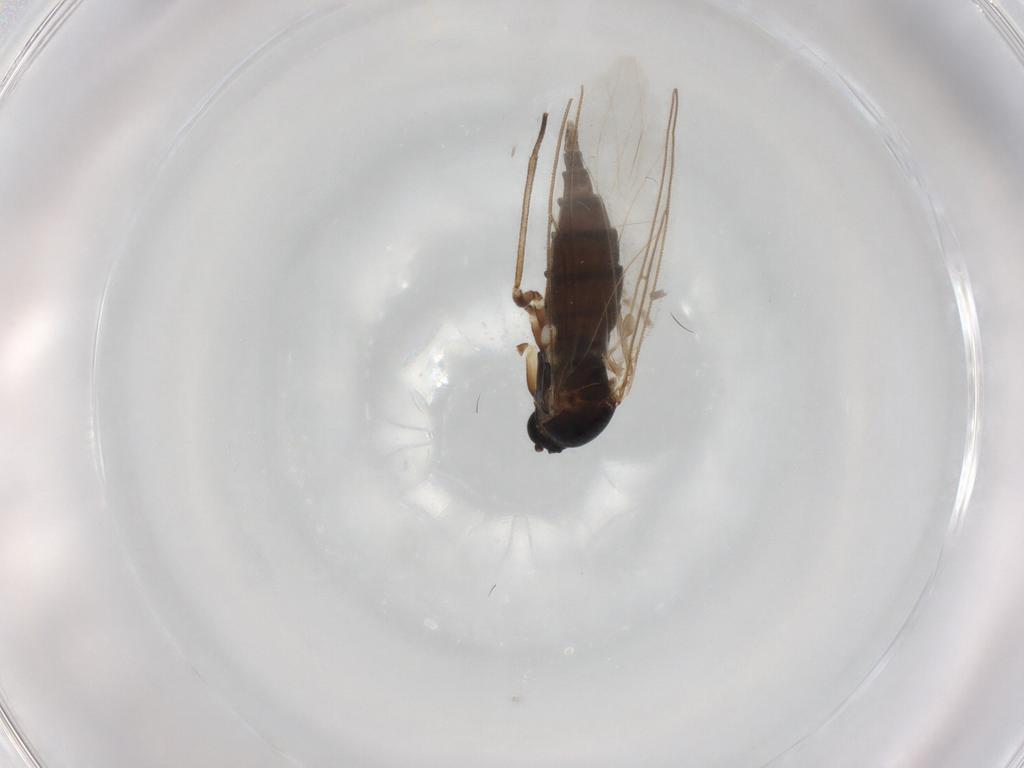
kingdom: Animalia
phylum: Arthropoda
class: Insecta
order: Diptera
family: Sciaridae
